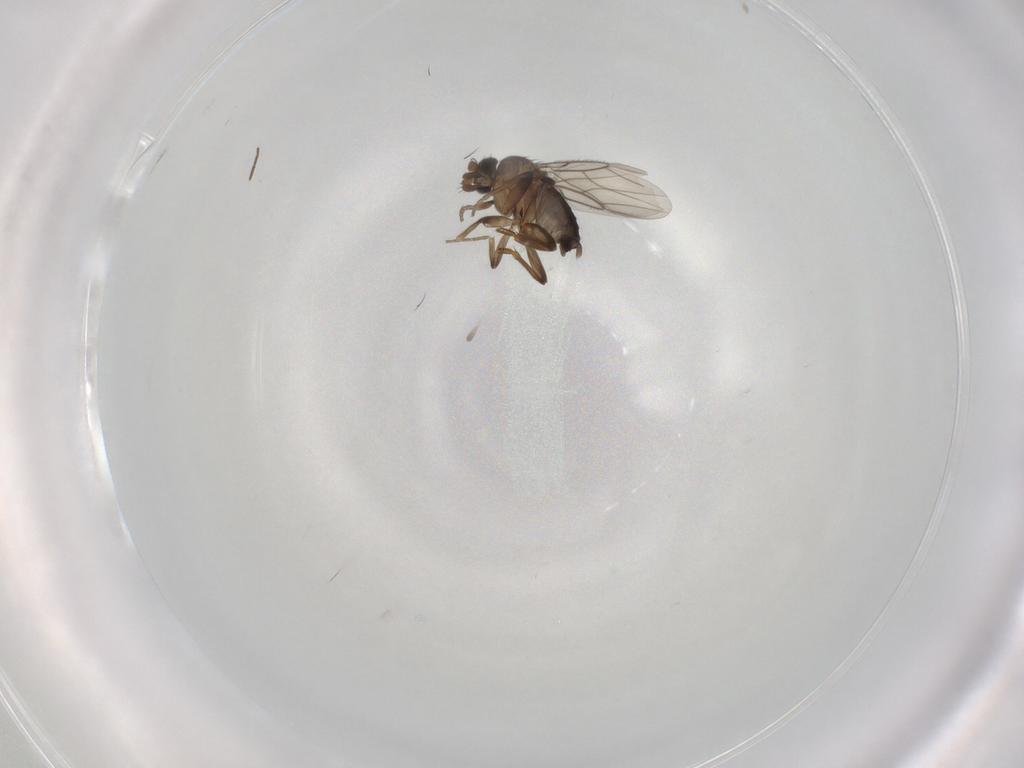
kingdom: Animalia
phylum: Arthropoda
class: Insecta
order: Diptera
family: Phoridae
